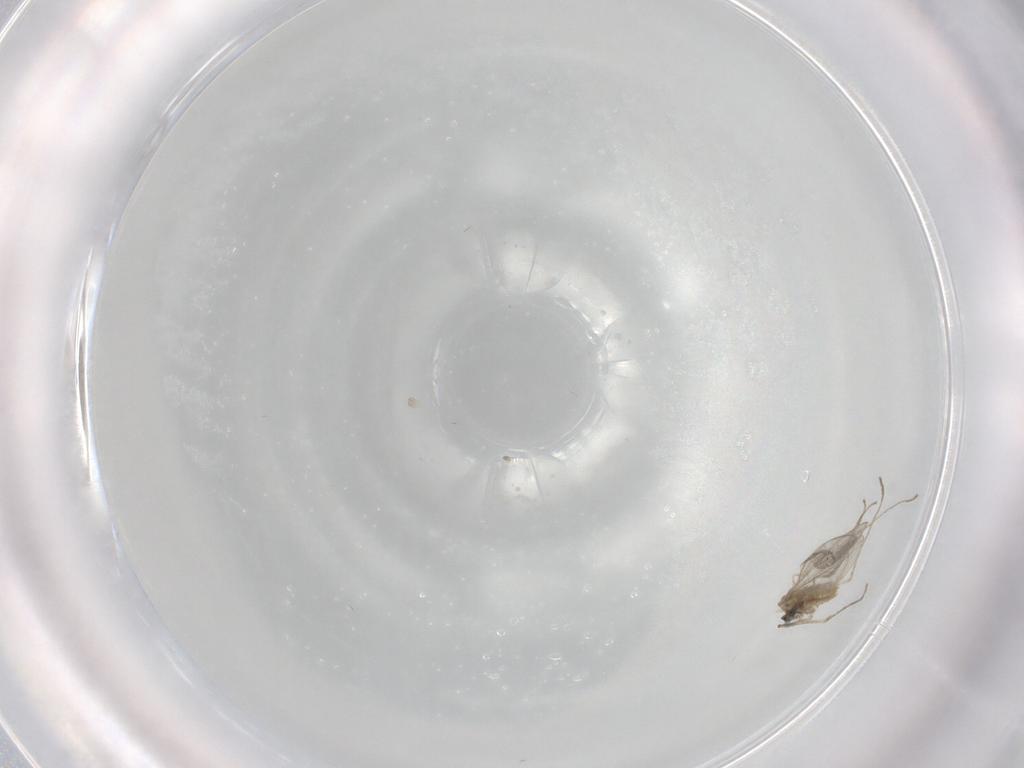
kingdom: Animalia
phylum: Arthropoda
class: Insecta
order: Diptera
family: Cecidomyiidae
